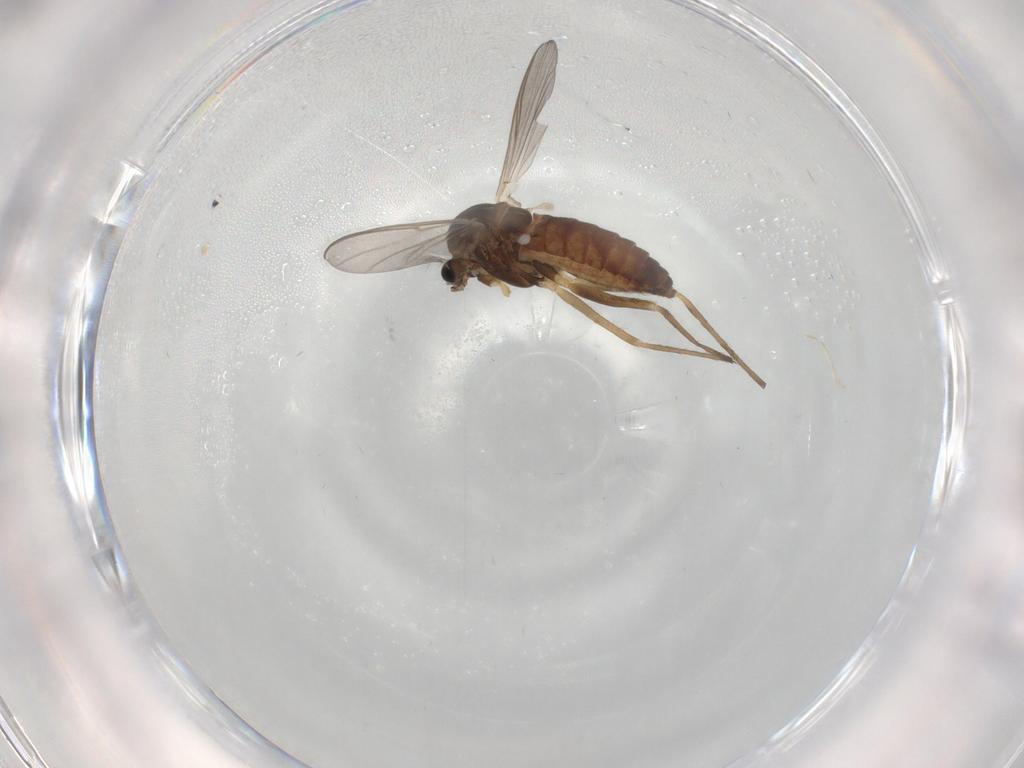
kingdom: Animalia
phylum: Arthropoda
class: Insecta
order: Diptera
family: Chironomidae
